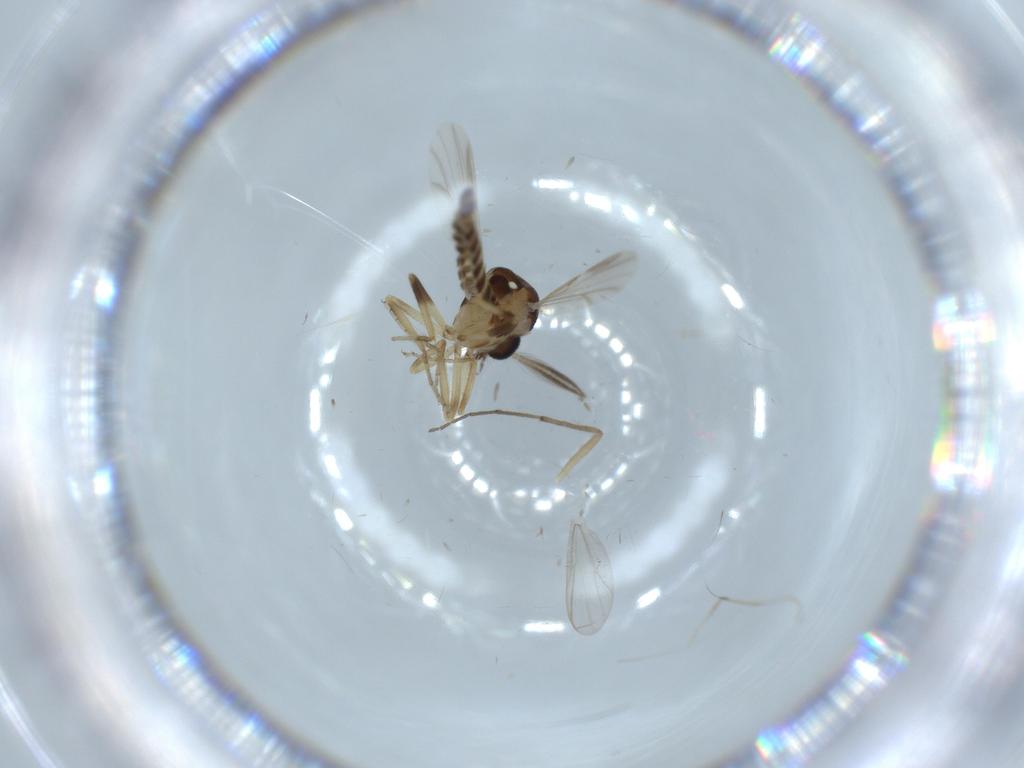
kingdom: Animalia
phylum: Arthropoda
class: Insecta
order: Diptera
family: Ceratopogonidae
